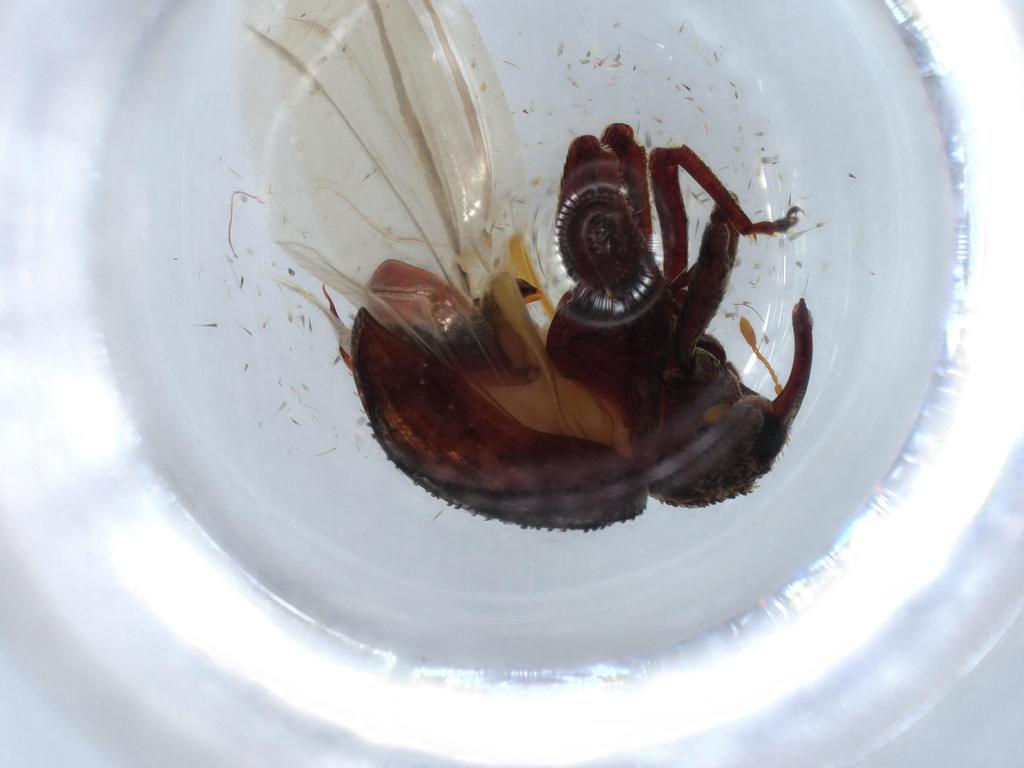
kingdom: Animalia
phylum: Arthropoda
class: Insecta
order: Coleoptera
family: Curculionidae
